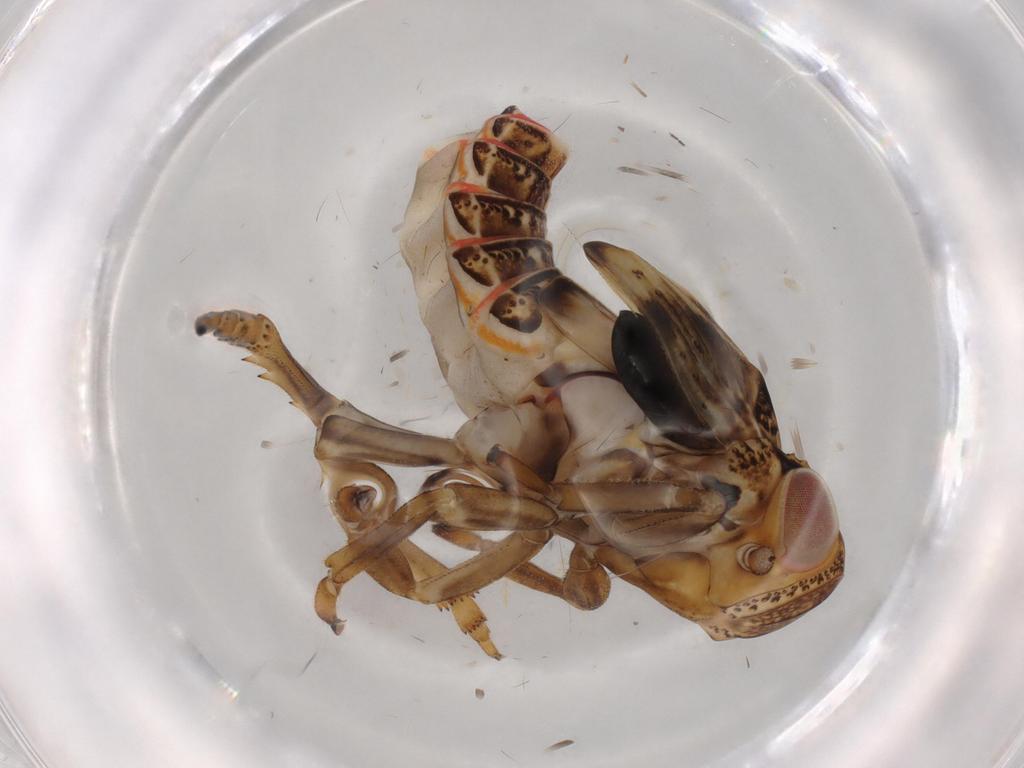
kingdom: Animalia
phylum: Arthropoda
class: Insecta
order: Hemiptera
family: Issidae
